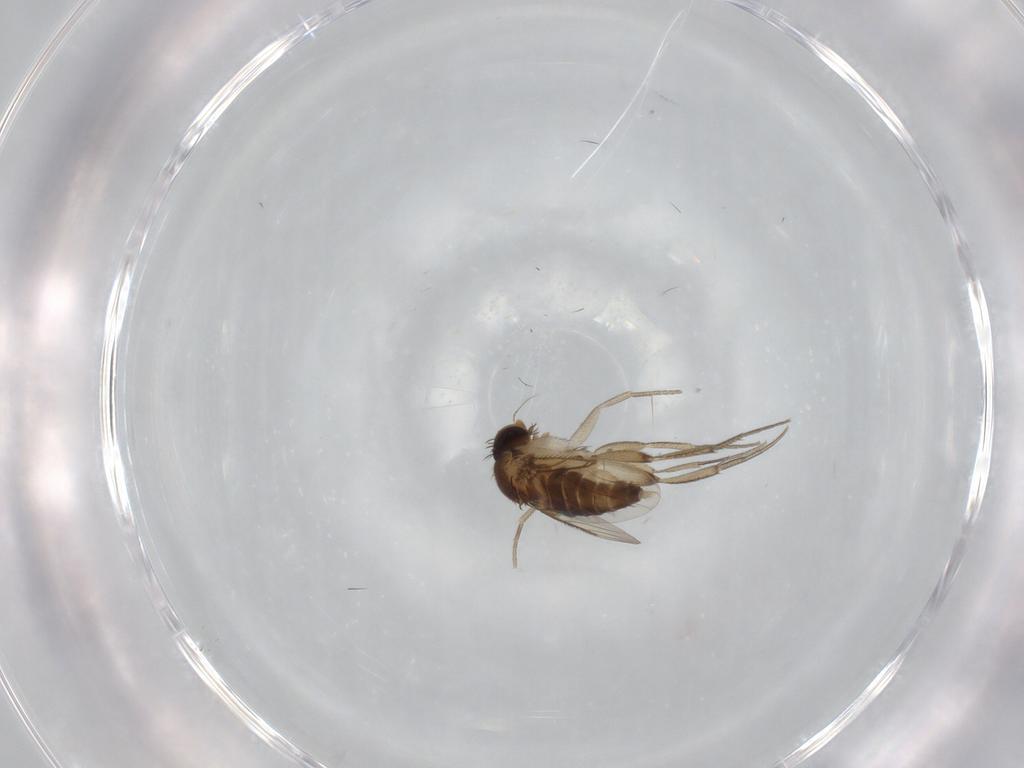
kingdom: Animalia
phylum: Arthropoda
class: Insecta
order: Diptera
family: Phoridae
